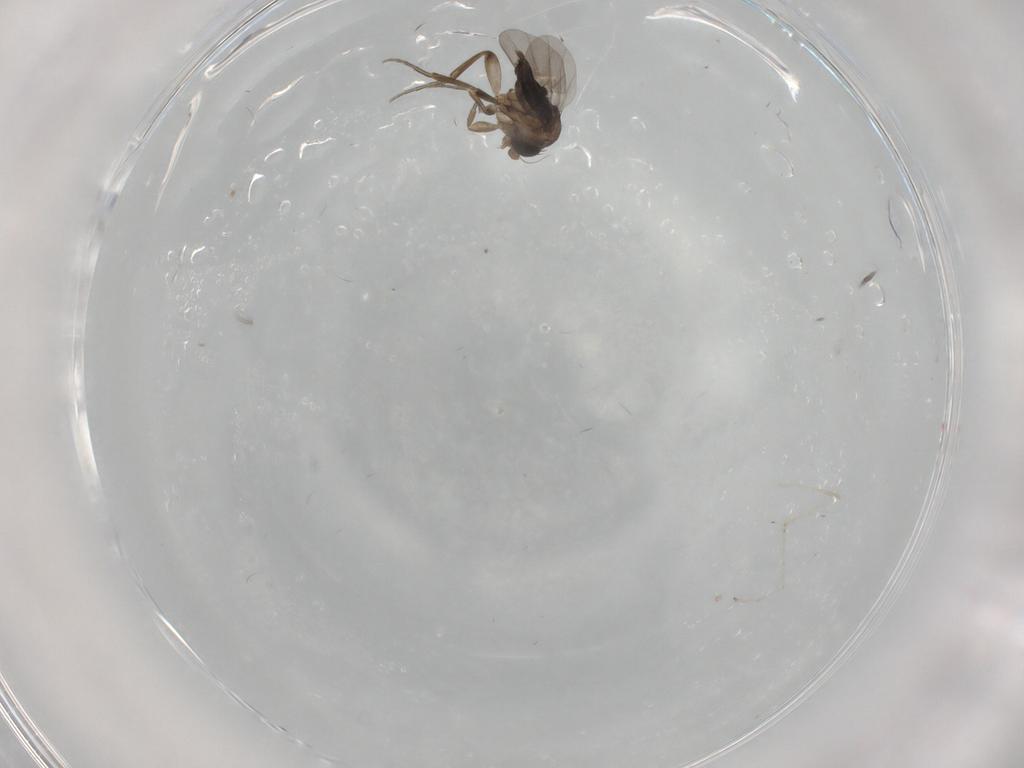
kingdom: Animalia
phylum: Arthropoda
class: Insecta
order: Diptera
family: Phoridae
